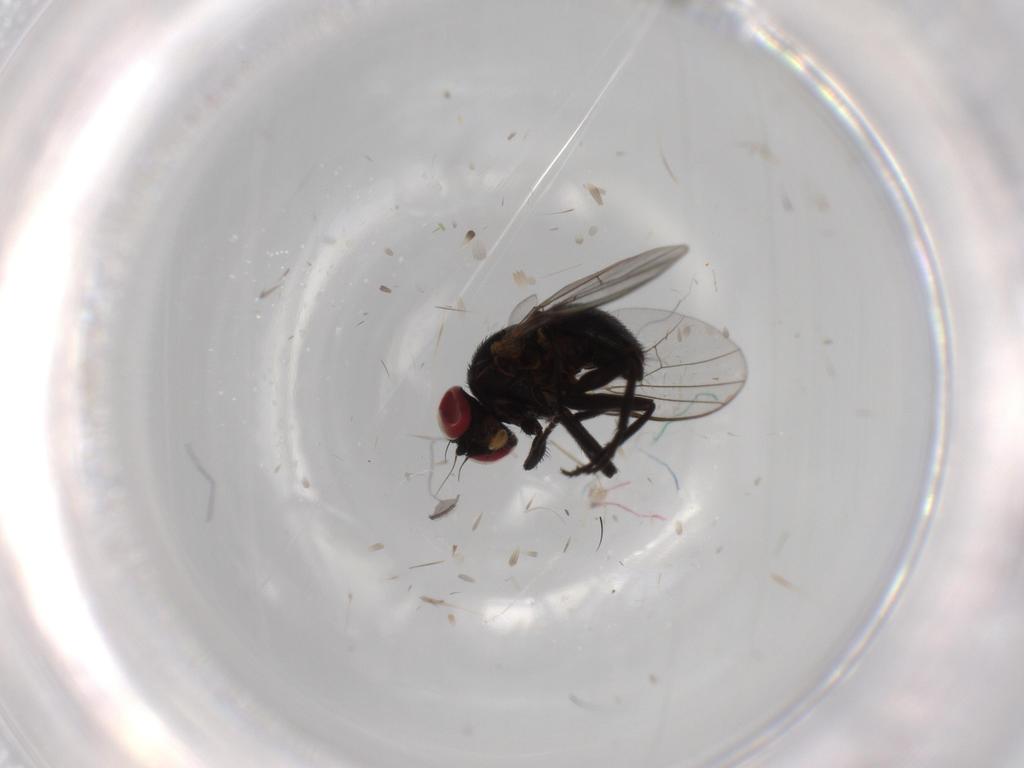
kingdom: Animalia
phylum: Arthropoda
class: Insecta
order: Diptera
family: Agromyzidae
